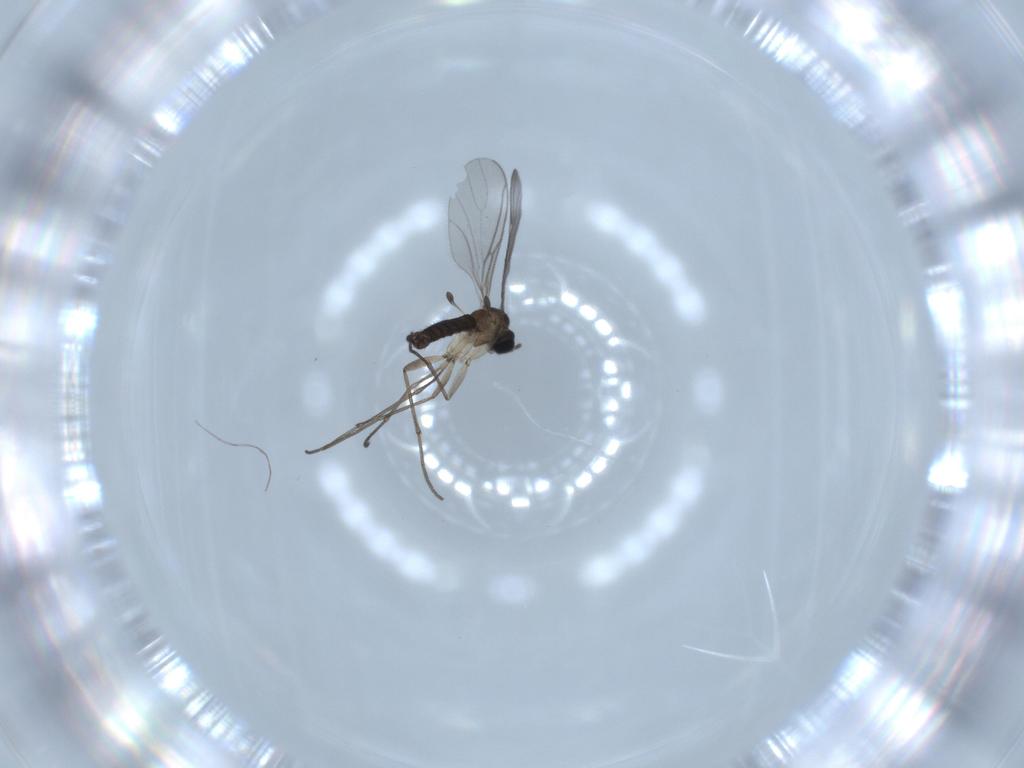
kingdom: Animalia
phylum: Arthropoda
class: Insecta
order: Diptera
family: Sciaridae
